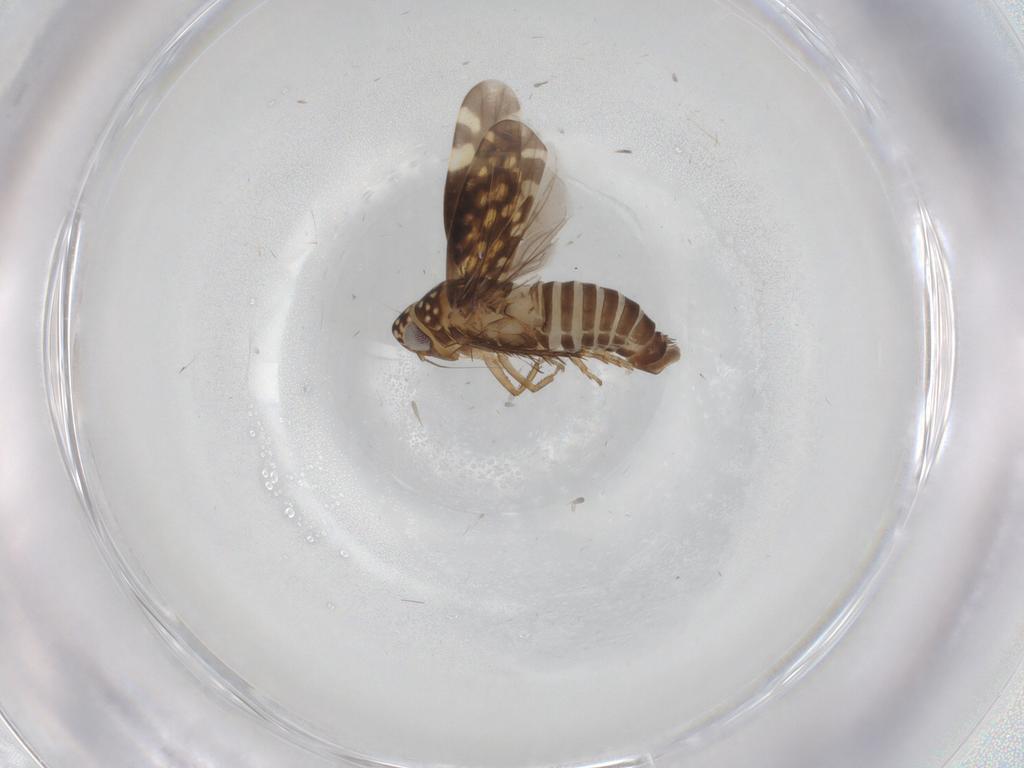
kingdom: Animalia
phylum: Arthropoda
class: Insecta
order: Hemiptera
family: Cicadellidae
